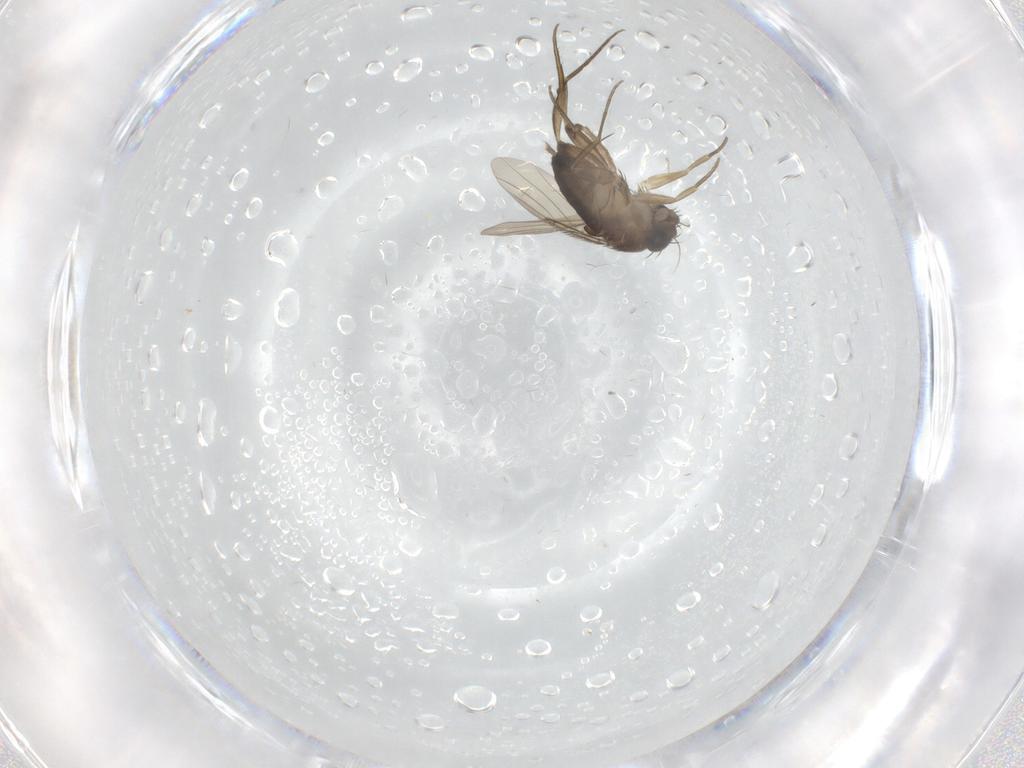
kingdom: Animalia
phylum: Arthropoda
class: Insecta
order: Diptera
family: Phoridae
